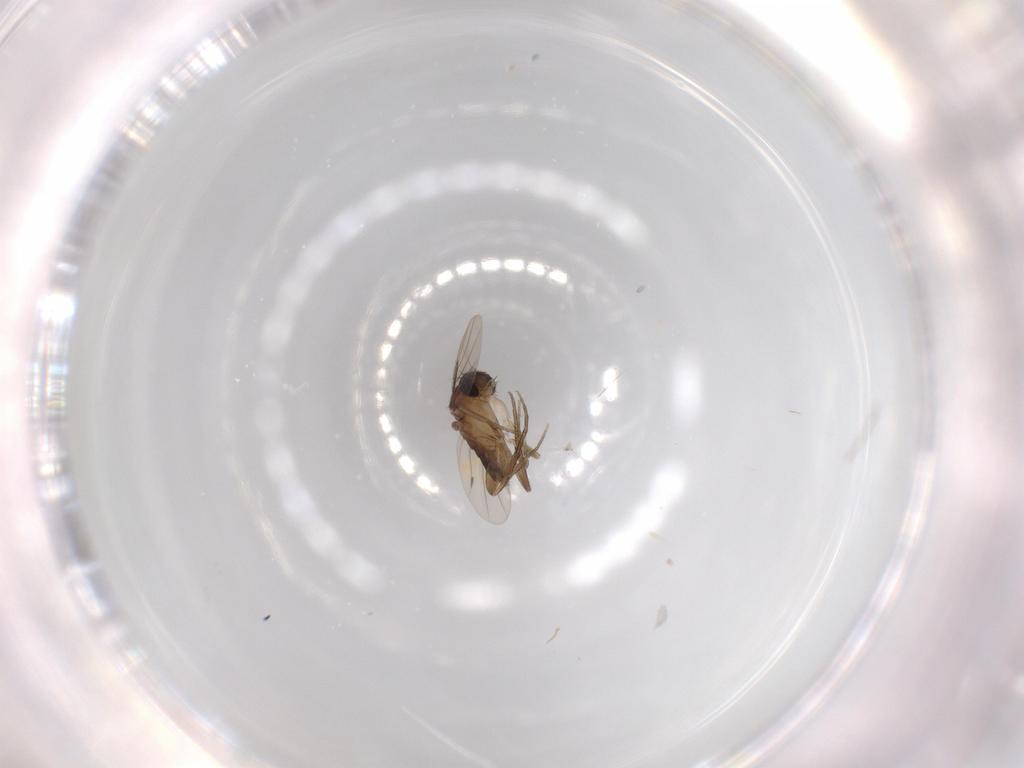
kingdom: Animalia
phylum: Arthropoda
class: Insecta
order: Diptera
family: Phoridae
